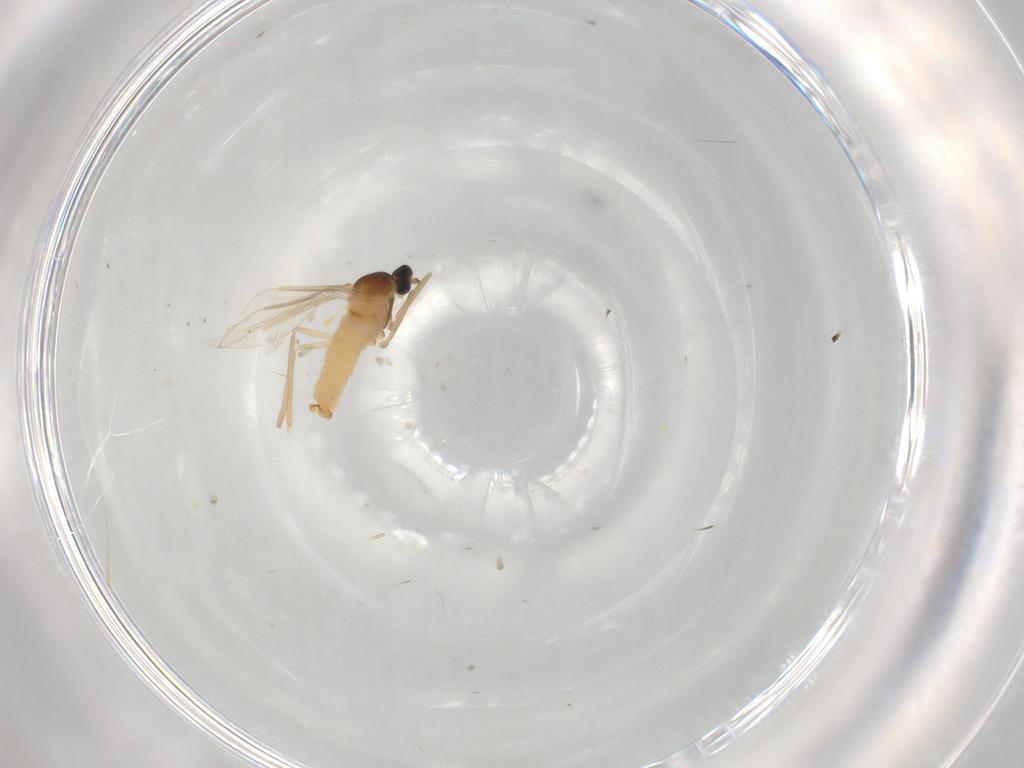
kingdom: Animalia
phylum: Arthropoda
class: Insecta
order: Diptera
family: Cecidomyiidae
